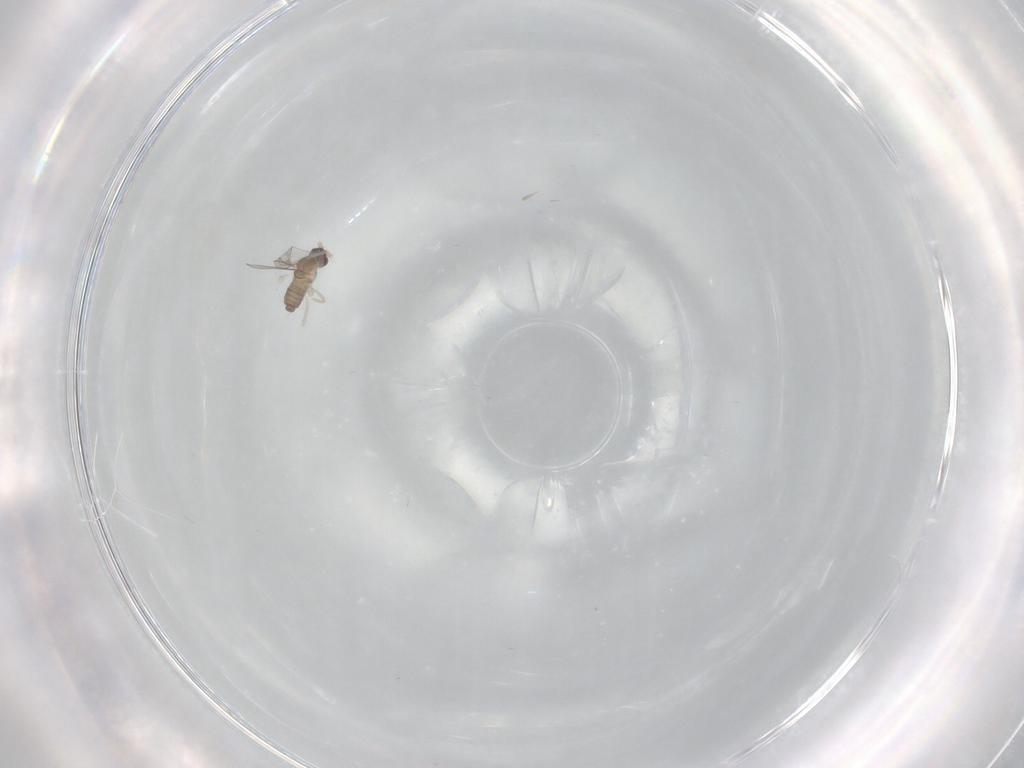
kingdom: Animalia
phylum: Arthropoda
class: Insecta
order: Diptera
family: Cecidomyiidae
